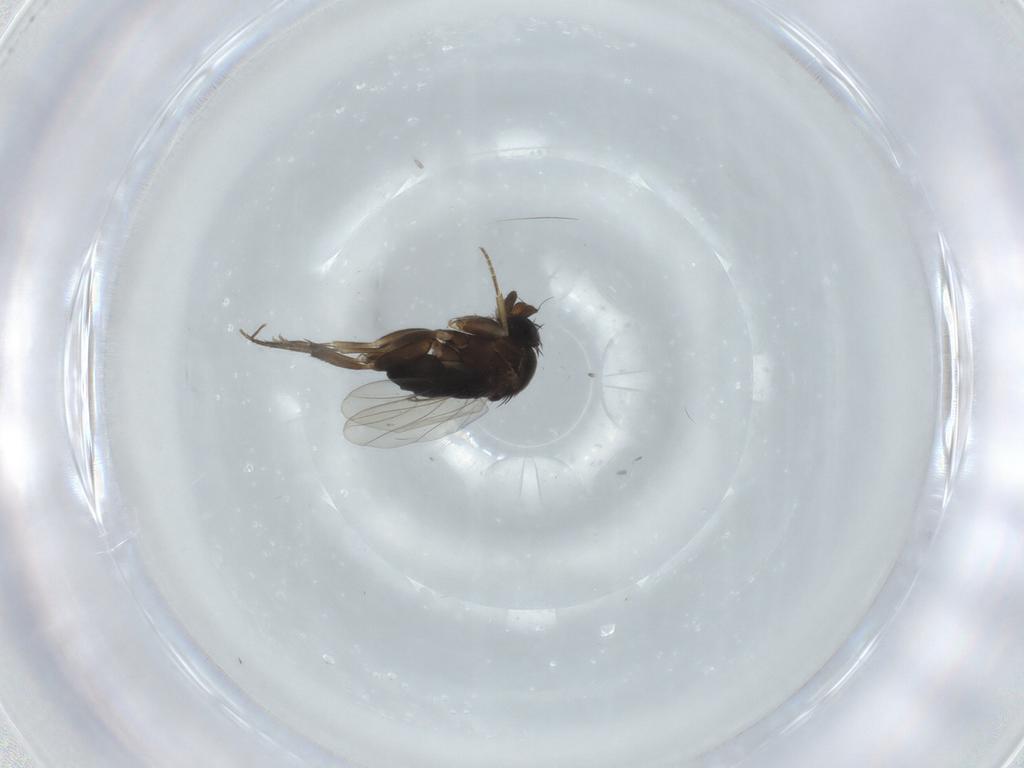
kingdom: Animalia
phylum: Arthropoda
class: Insecta
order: Diptera
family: Phoridae
